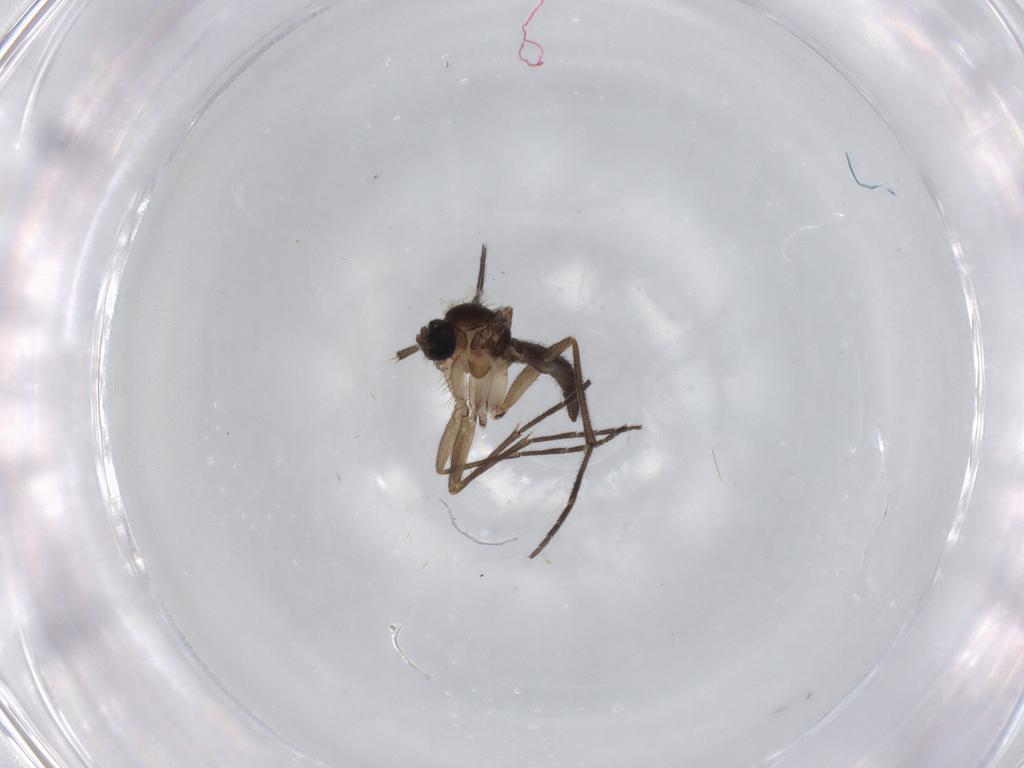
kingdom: Animalia
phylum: Arthropoda
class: Insecta
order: Diptera
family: Sciaridae
